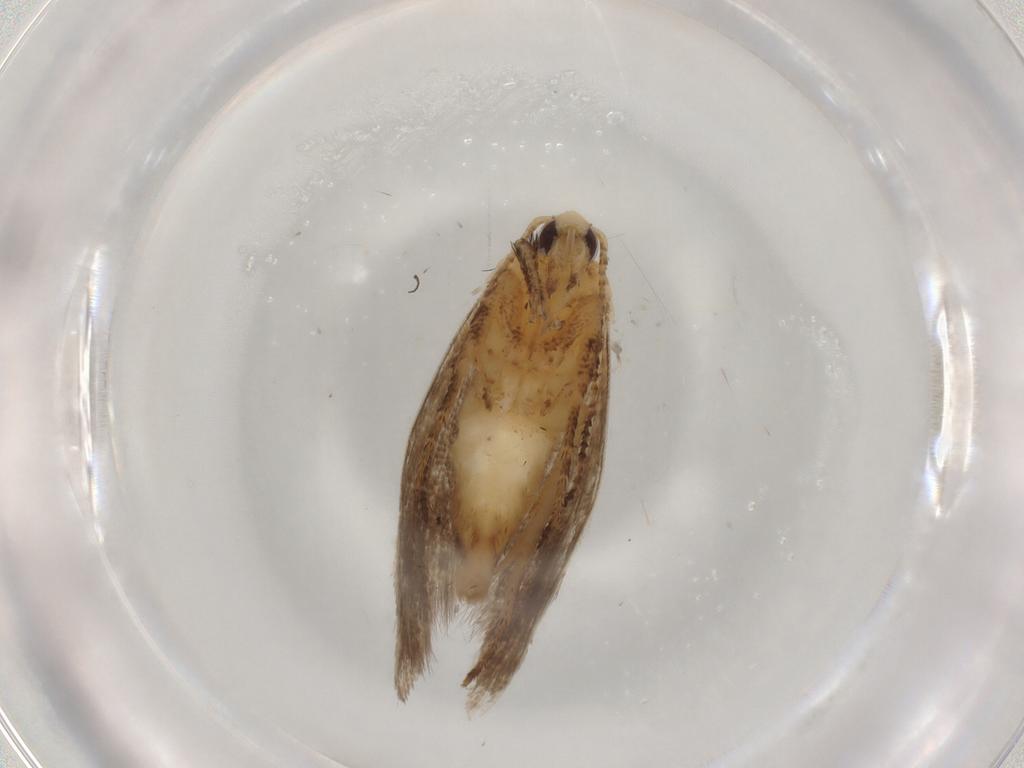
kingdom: Animalia
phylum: Arthropoda
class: Insecta
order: Lepidoptera
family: Ypsolophidae
